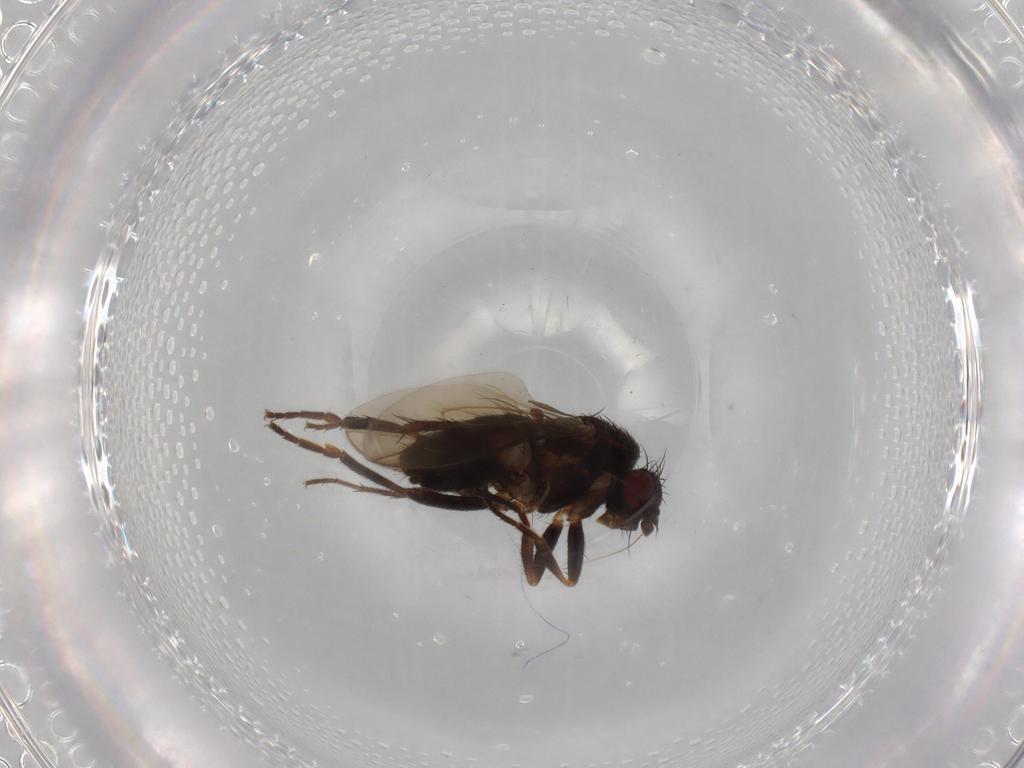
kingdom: Animalia
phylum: Arthropoda
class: Insecta
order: Diptera
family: Sphaeroceridae
